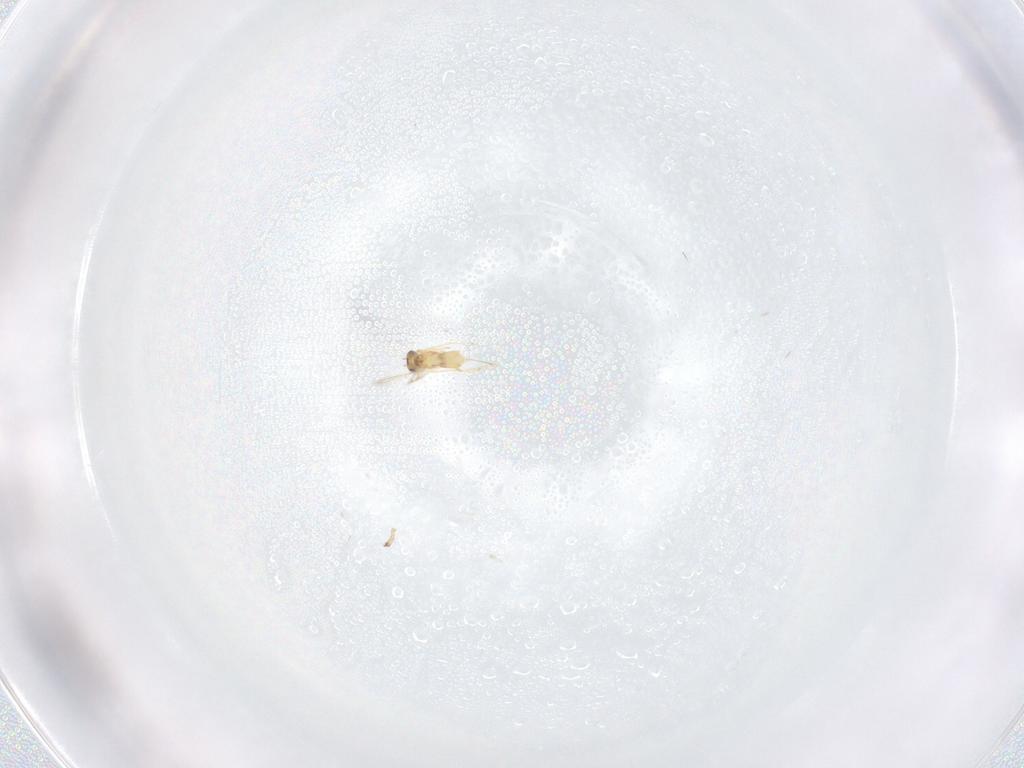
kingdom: Animalia
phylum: Arthropoda
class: Insecta
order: Hymenoptera
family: Mymaridae
